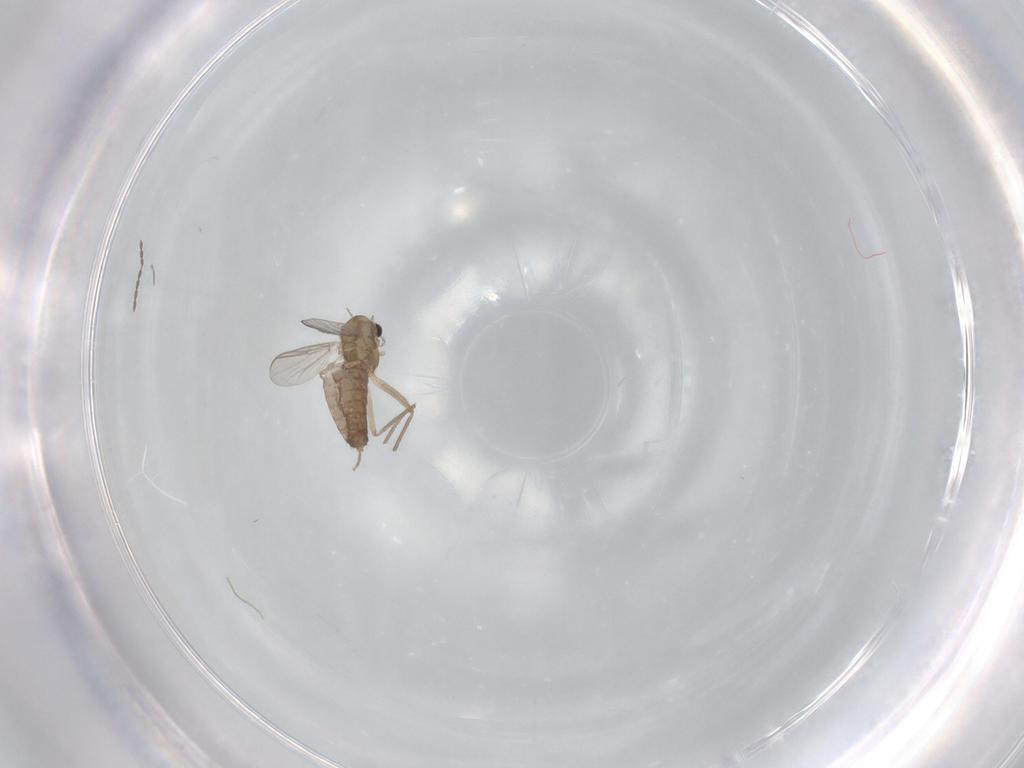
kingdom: Animalia
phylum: Arthropoda
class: Insecta
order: Diptera
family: Chironomidae
